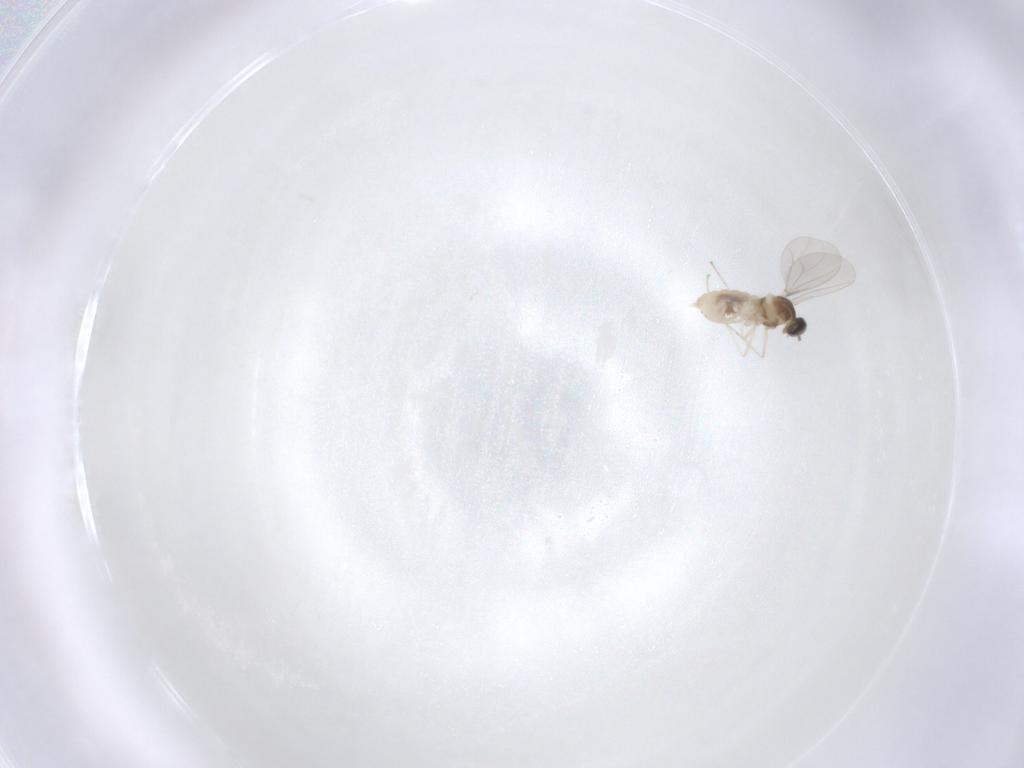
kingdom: Animalia
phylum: Arthropoda
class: Insecta
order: Diptera
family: Cecidomyiidae
